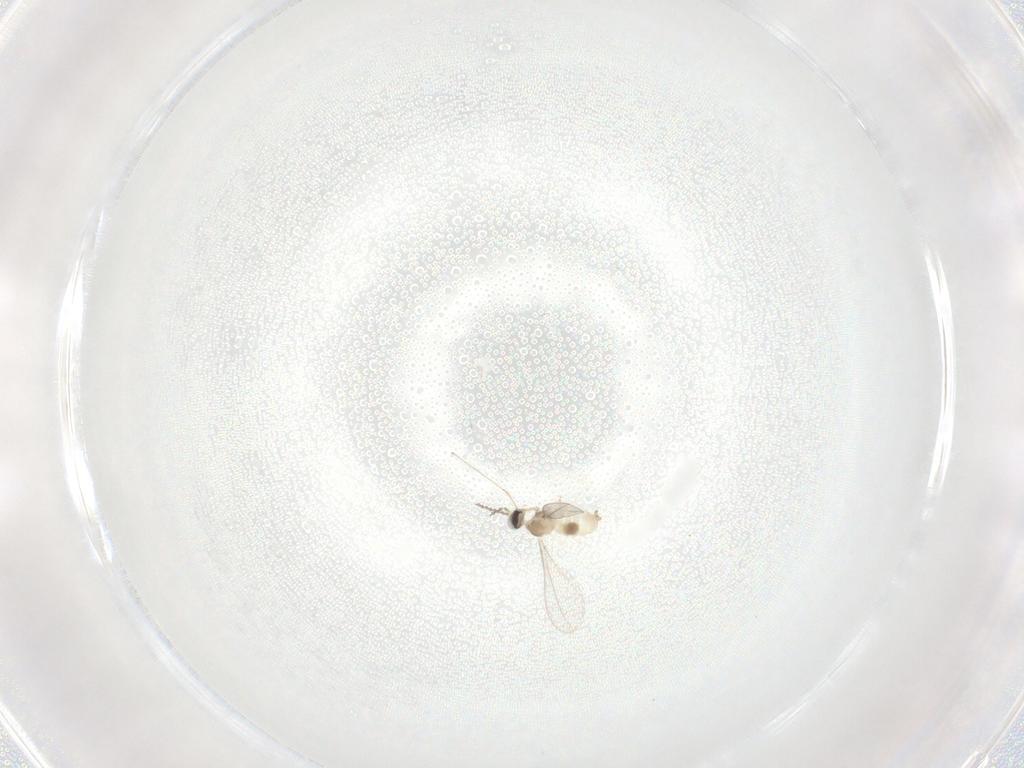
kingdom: Animalia
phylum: Arthropoda
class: Insecta
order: Diptera
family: Cecidomyiidae
